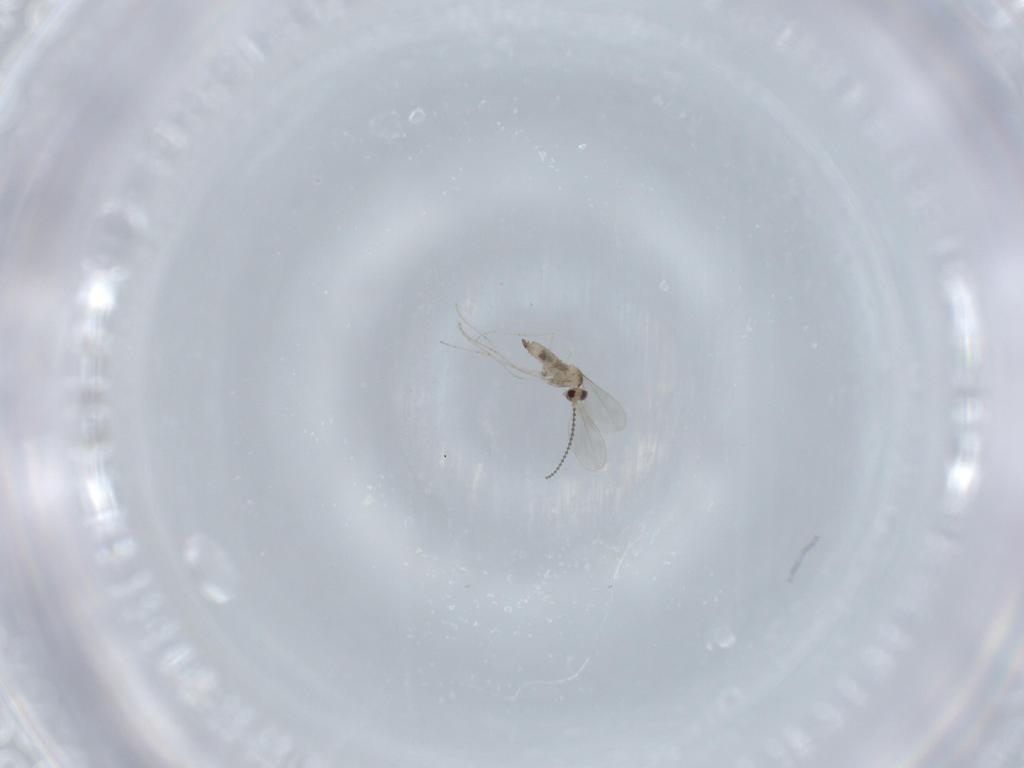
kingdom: Animalia
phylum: Arthropoda
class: Insecta
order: Diptera
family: Cecidomyiidae
